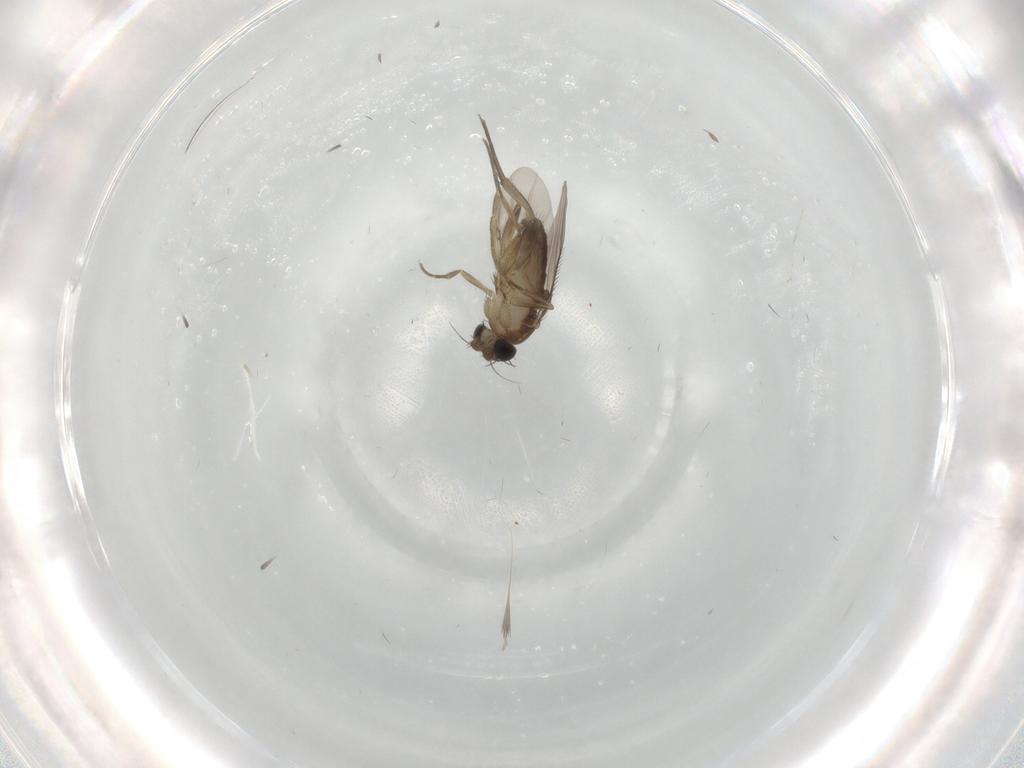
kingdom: Animalia
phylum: Arthropoda
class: Insecta
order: Diptera
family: Phoridae
